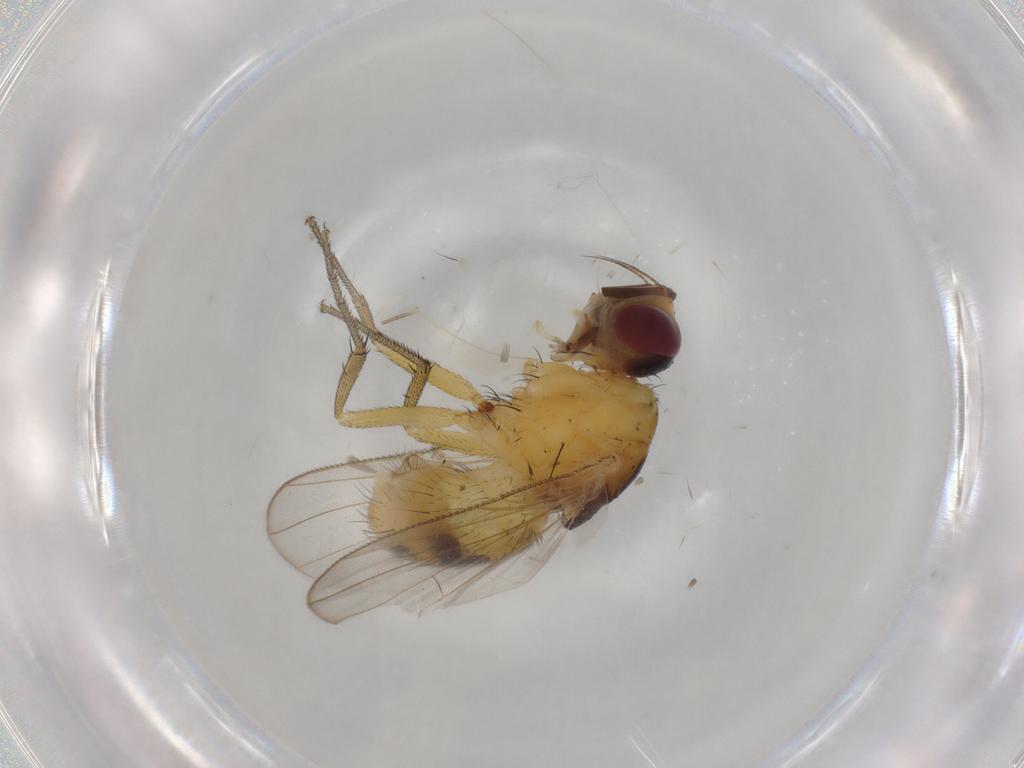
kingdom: Animalia
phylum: Arthropoda
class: Insecta
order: Diptera
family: Muscidae
